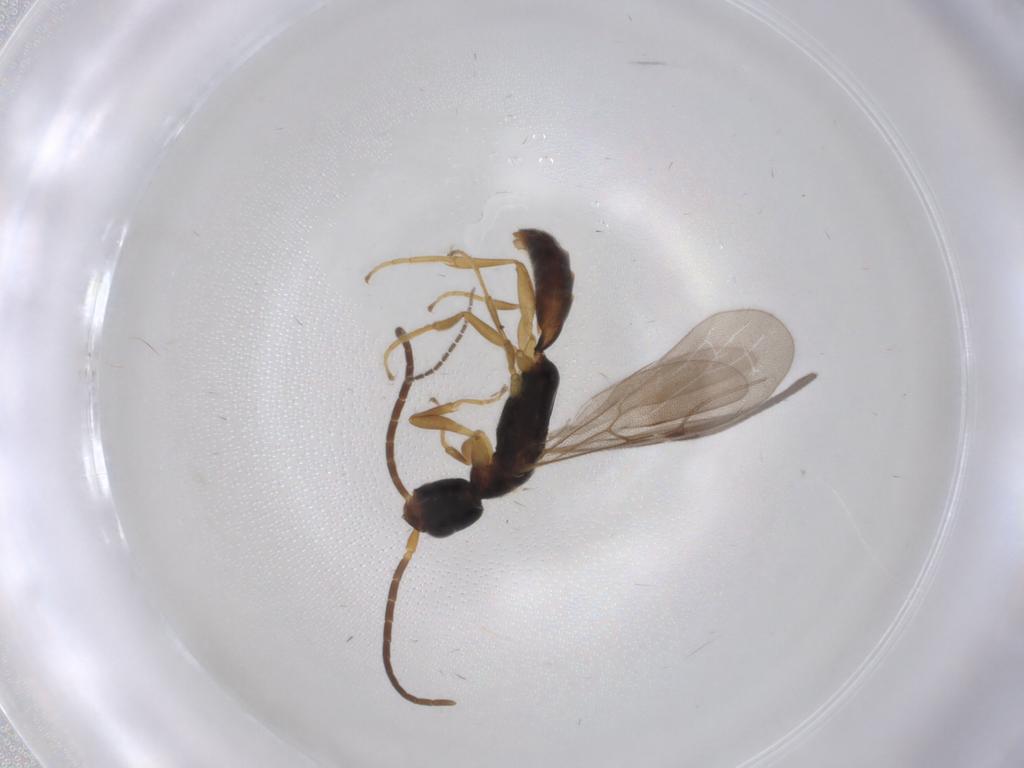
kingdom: Animalia
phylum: Arthropoda
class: Insecta
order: Hymenoptera
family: Bethylidae
